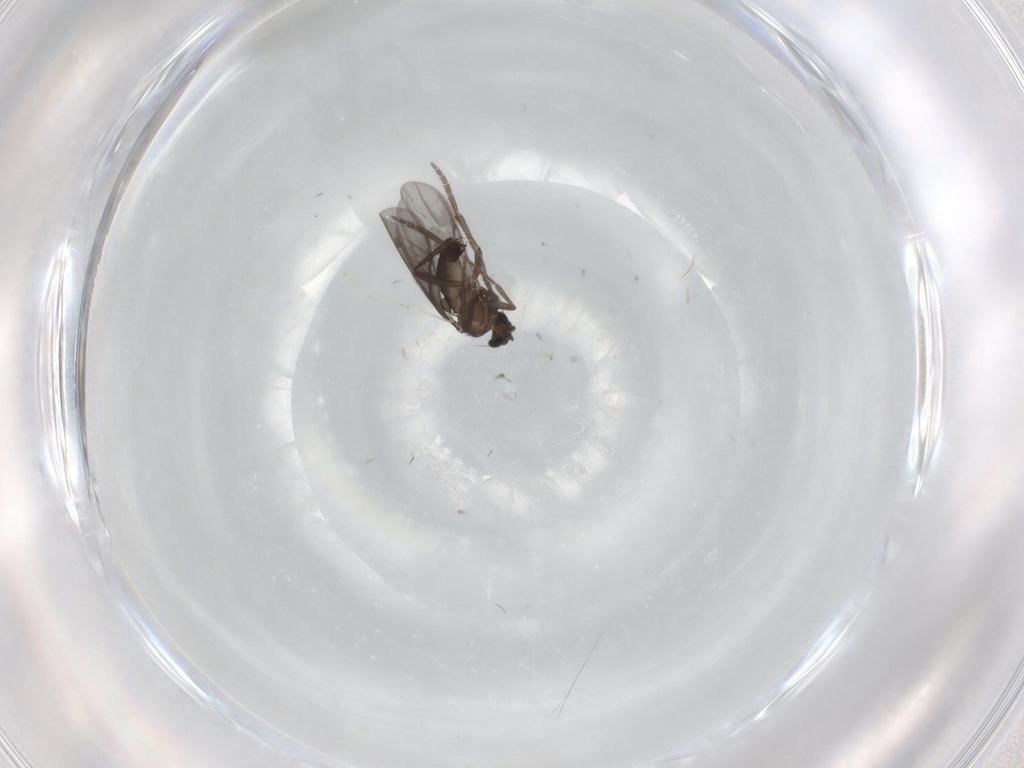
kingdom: Animalia
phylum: Arthropoda
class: Insecta
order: Diptera
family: Phoridae
